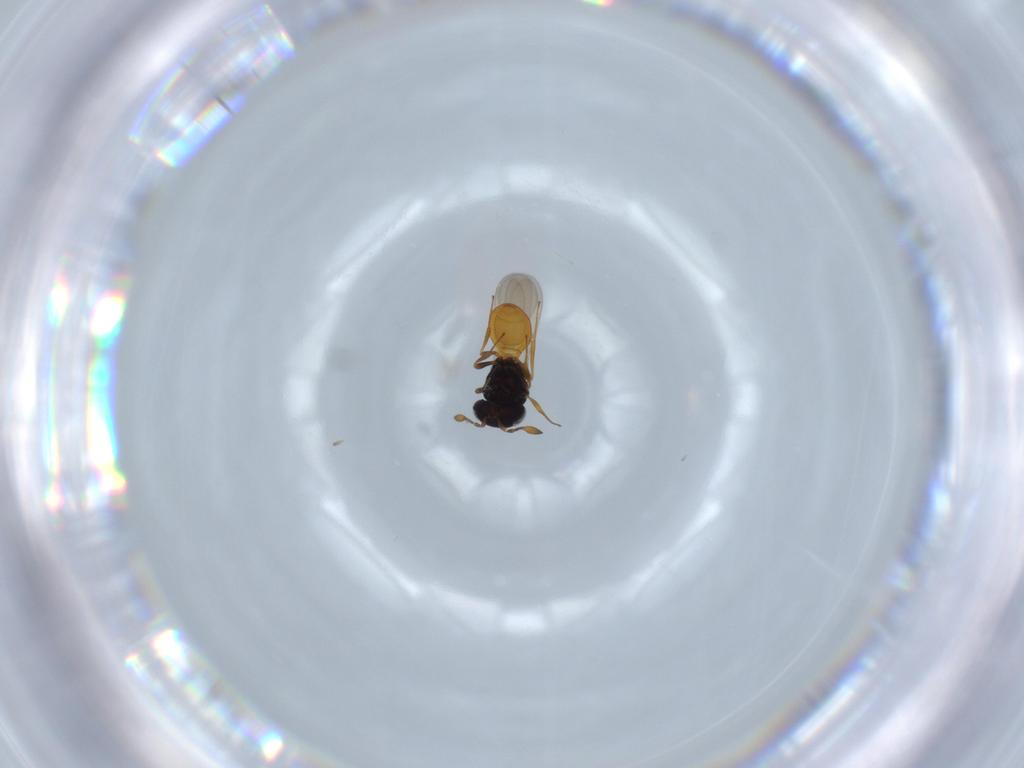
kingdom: Animalia
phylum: Arthropoda
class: Insecta
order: Hymenoptera
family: Scelionidae
